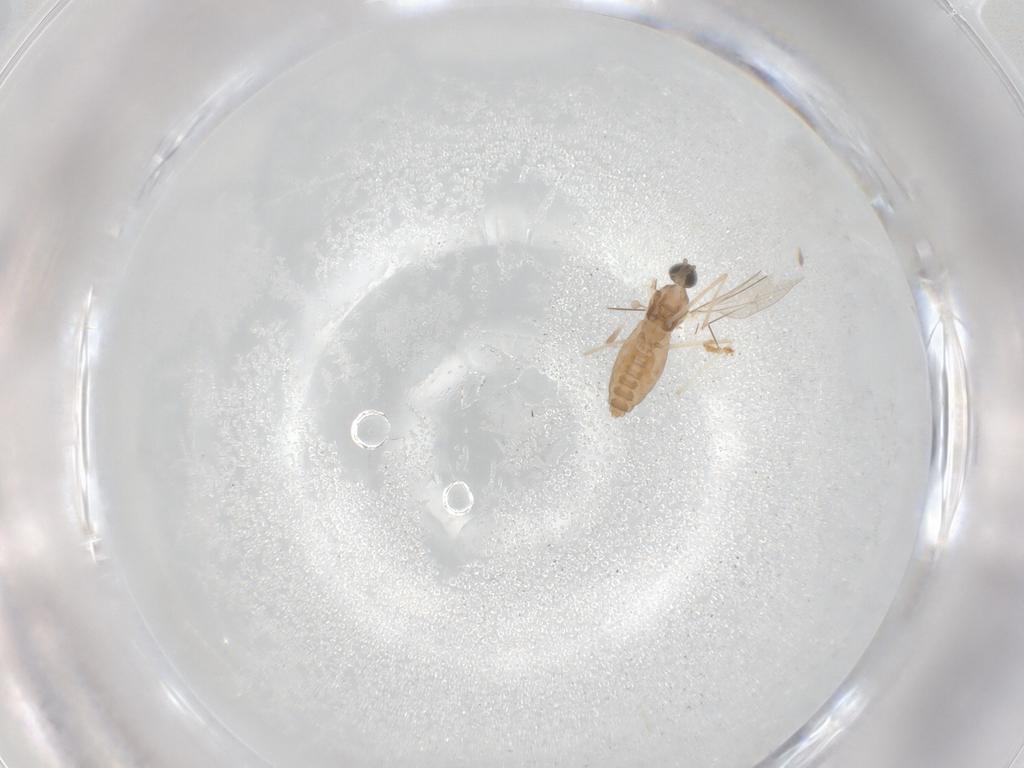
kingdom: Animalia
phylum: Arthropoda
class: Insecta
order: Diptera
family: Cecidomyiidae
